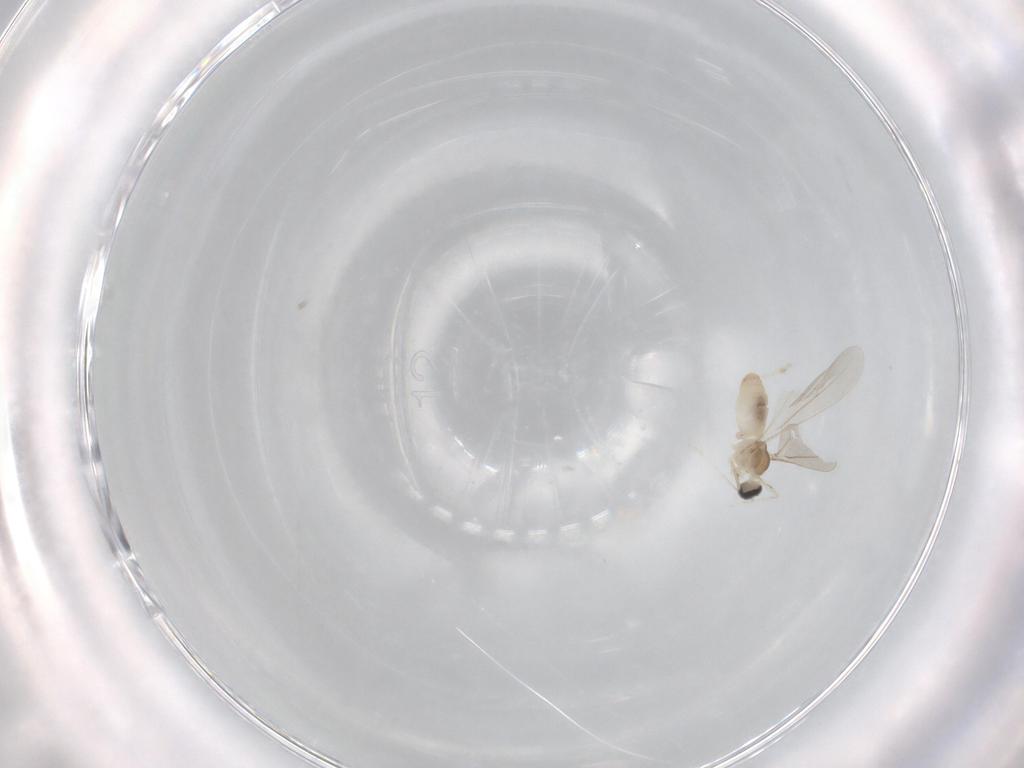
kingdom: Animalia
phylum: Arthropoda
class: Insecta
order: Diptera
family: Cecidomyiidae
